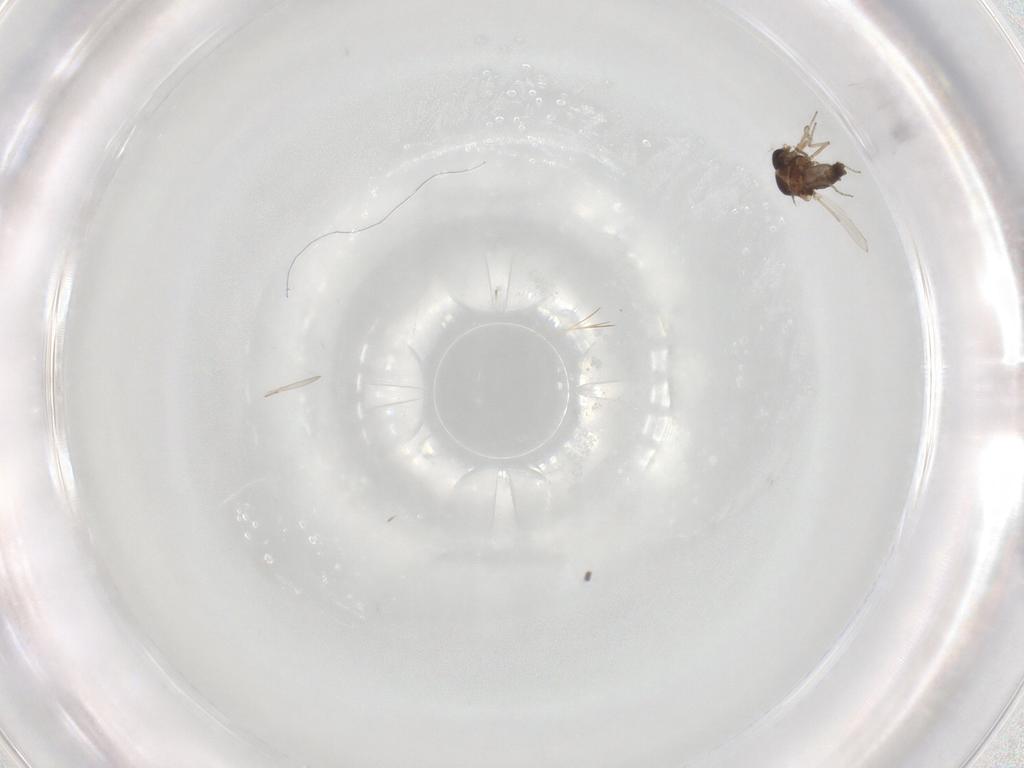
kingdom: Animalia
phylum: Arthropoda
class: Insecta
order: Diptera
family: Ceratopogonidae
